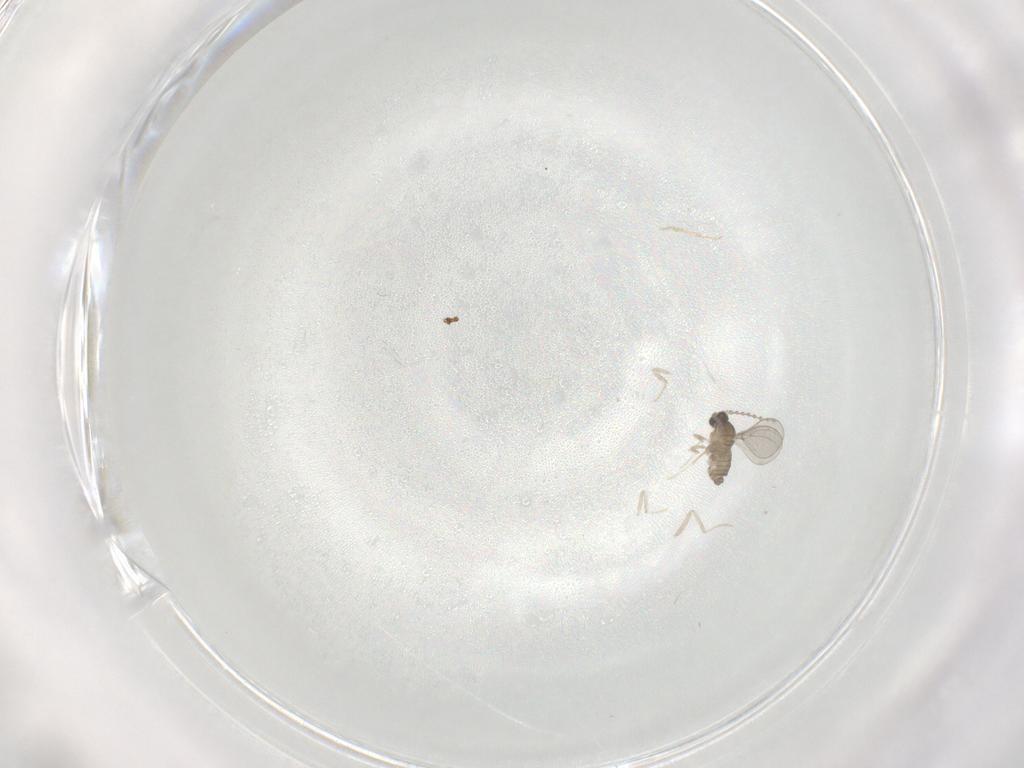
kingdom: Animalia
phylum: Arthropoda
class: Insecta
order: Diptera
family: Cecidomyiidae
